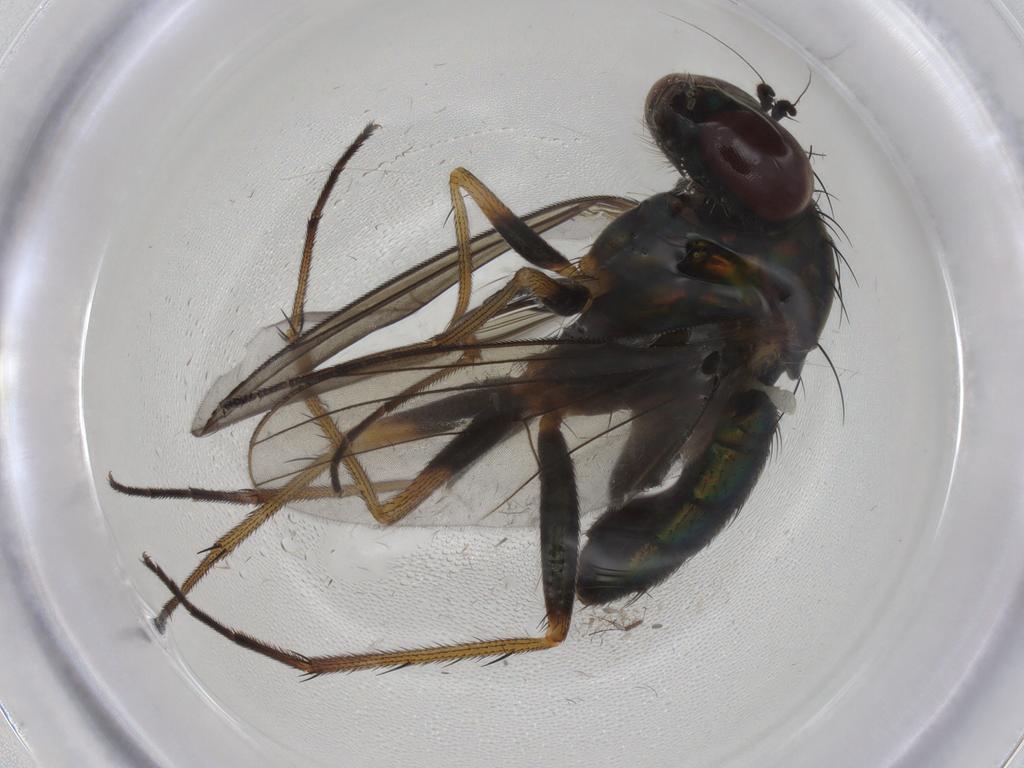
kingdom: Animalia
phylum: Arthropoda
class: Insecta
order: Diptera
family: Dolichopodidae
